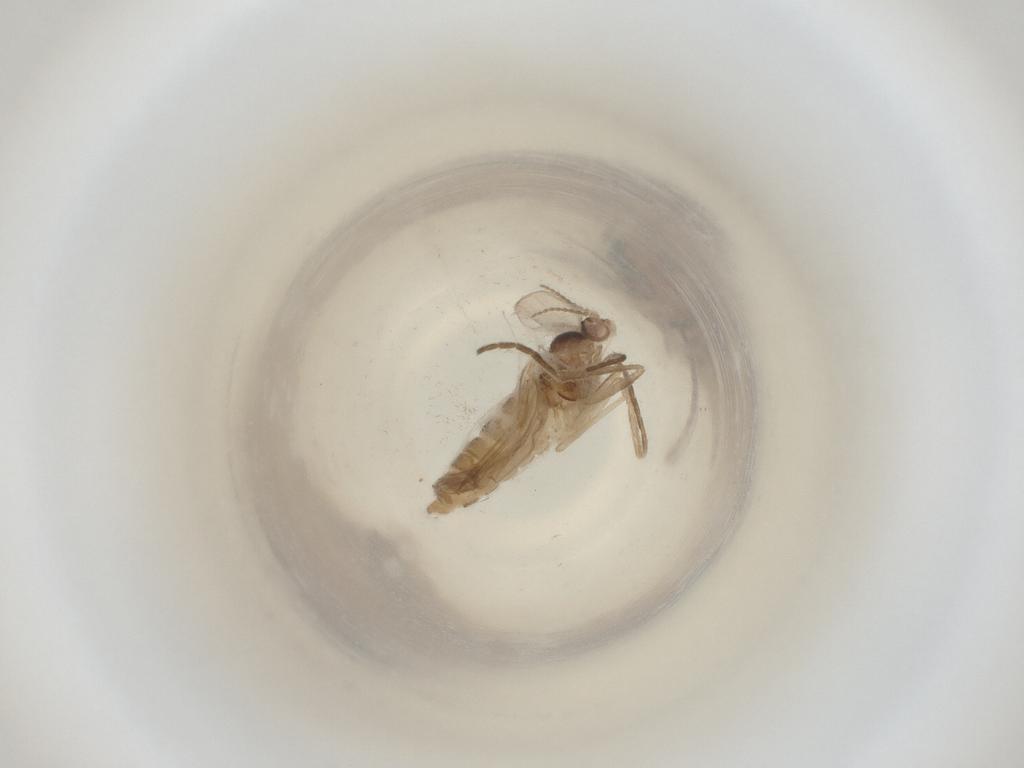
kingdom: Animalia
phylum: Arthropoda
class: Insecta
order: Diptera
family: Cecidomyiidae
